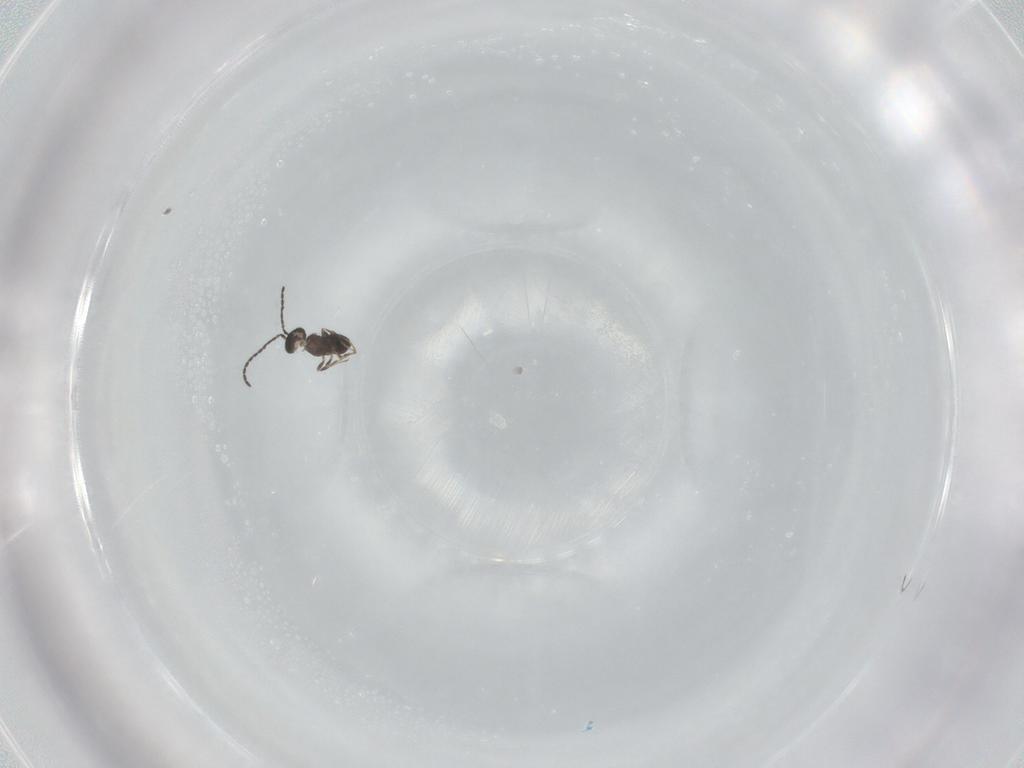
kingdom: Animalia
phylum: Arthropoda
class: Insecta
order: Hymenoptera
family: Scelionidae
